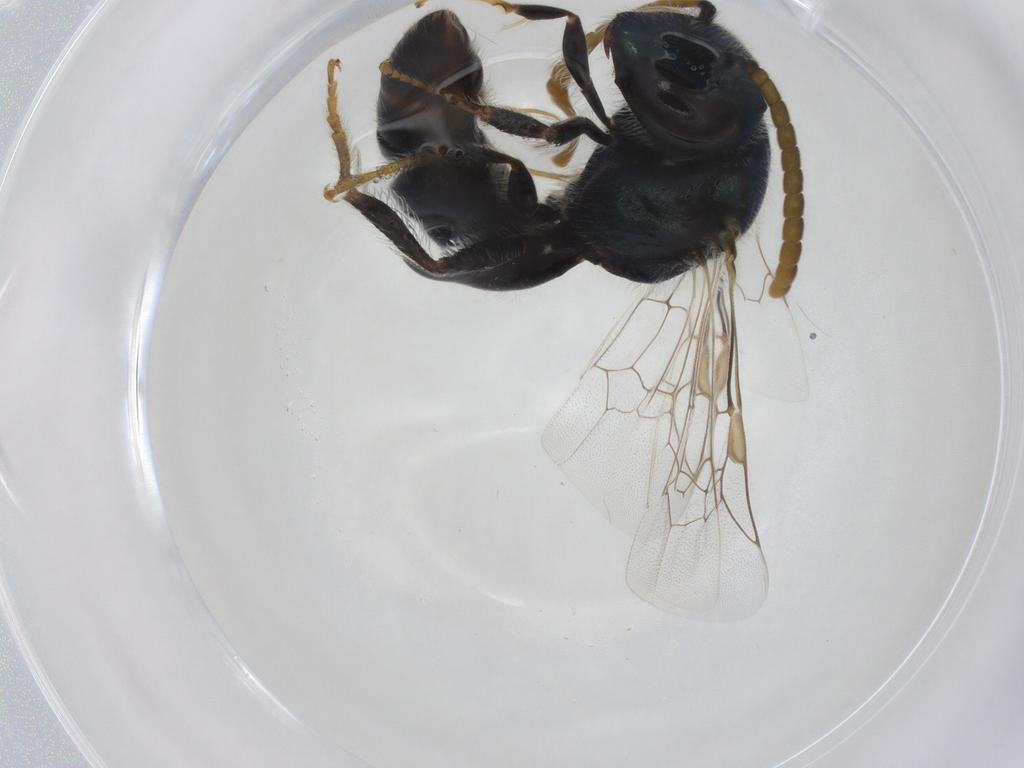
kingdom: Animalia
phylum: Arthropoda
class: Insecta
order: Hymenoptera
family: Halictidae
